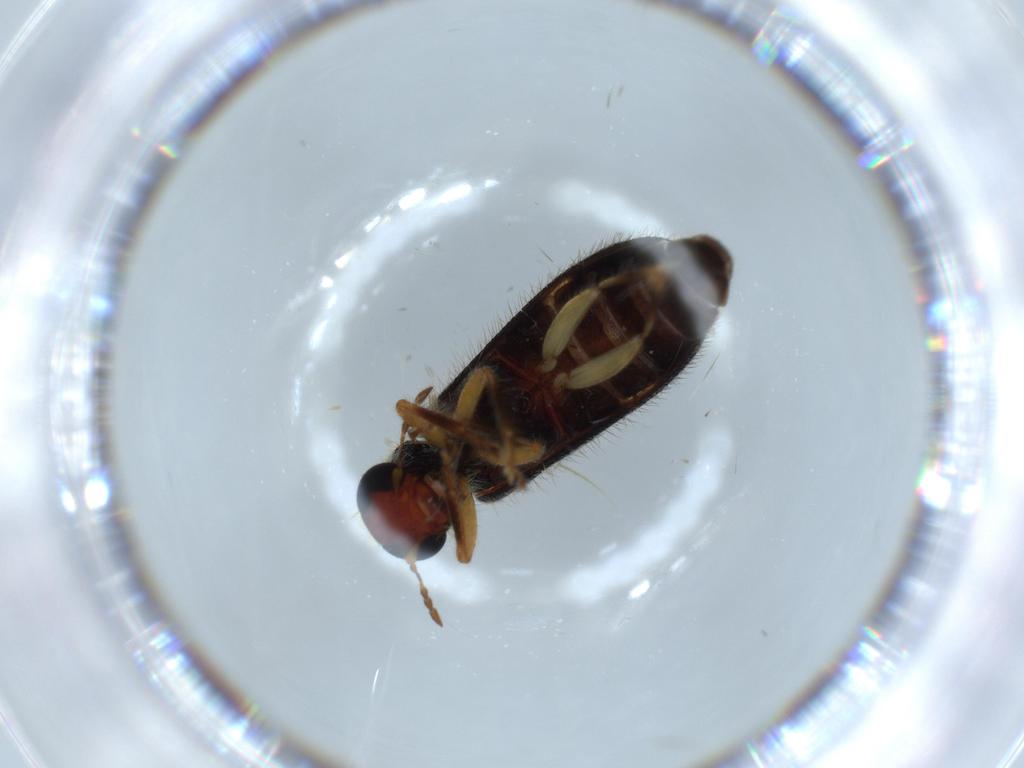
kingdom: Animalia
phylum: Arthropoda
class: Insecta
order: Coleoptera
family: Cleridae
